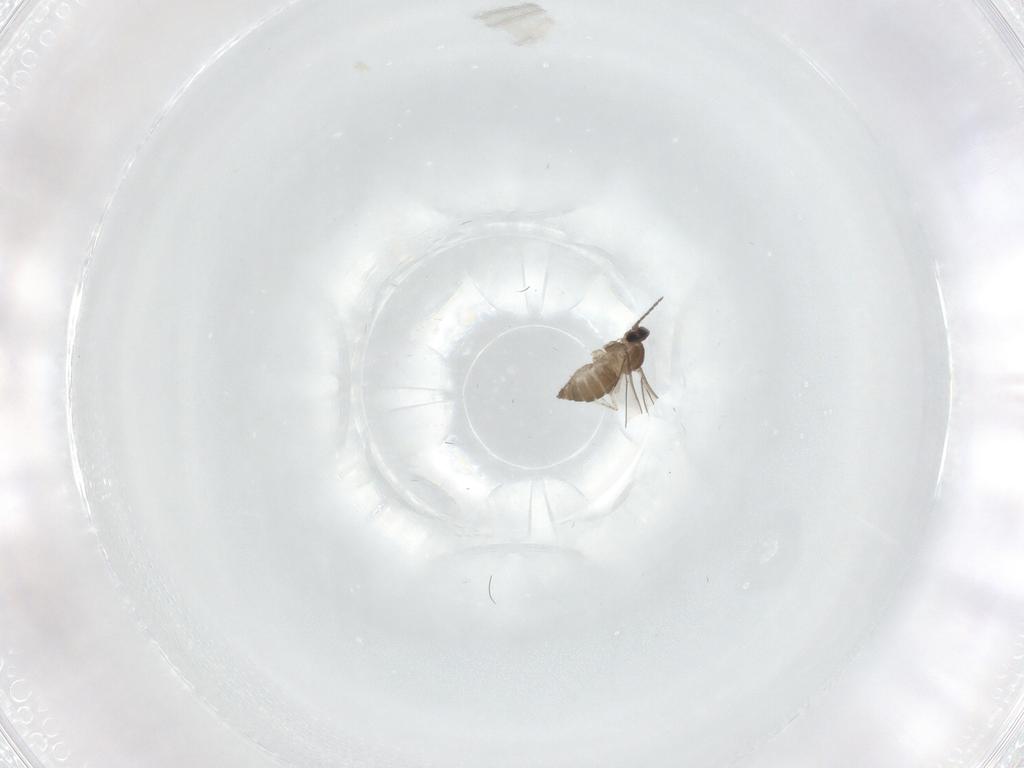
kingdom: Animalia
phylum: Arthropoda
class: Insecta
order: Diptera
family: Cecidomyiidae
